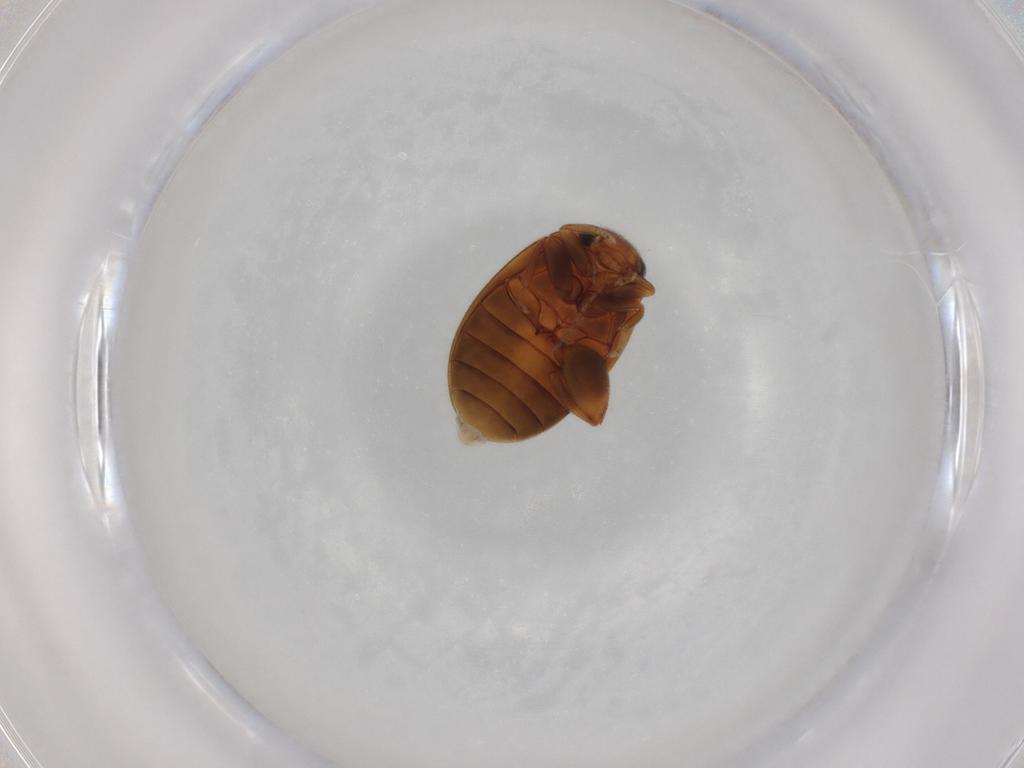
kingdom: Animalia
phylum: Arthropoda
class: Insecta
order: Coleoptera
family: Scirtidae
